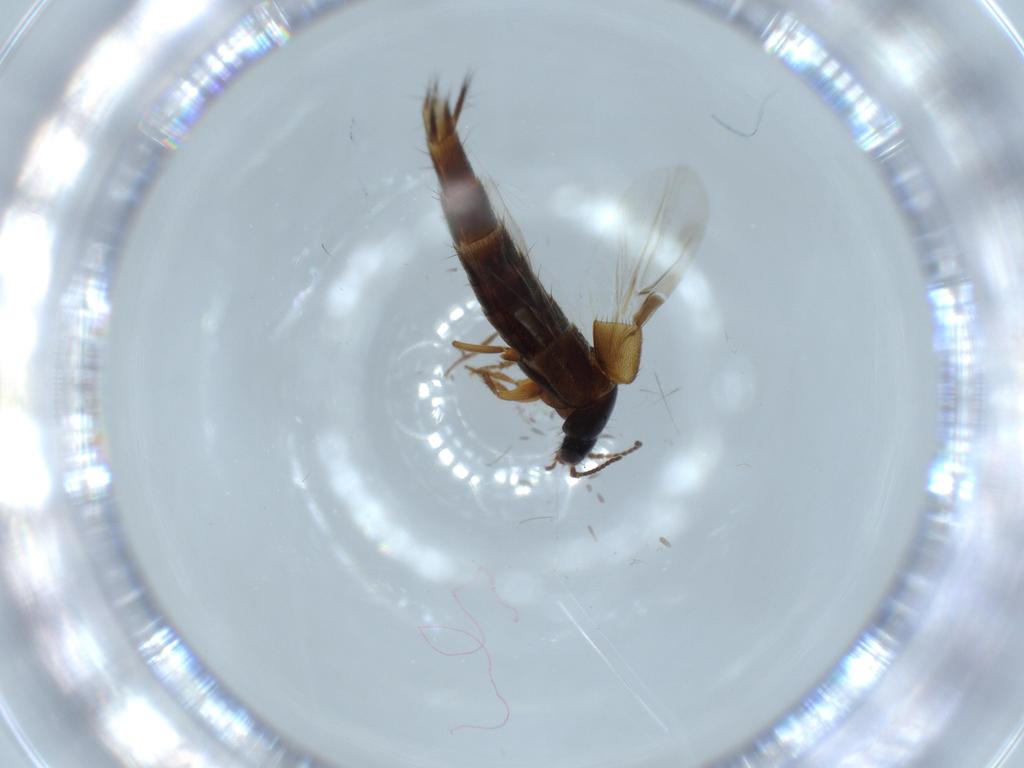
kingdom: Animalia
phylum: Arthropoda
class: Insecta
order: Coleoptera
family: Staphylinidae
